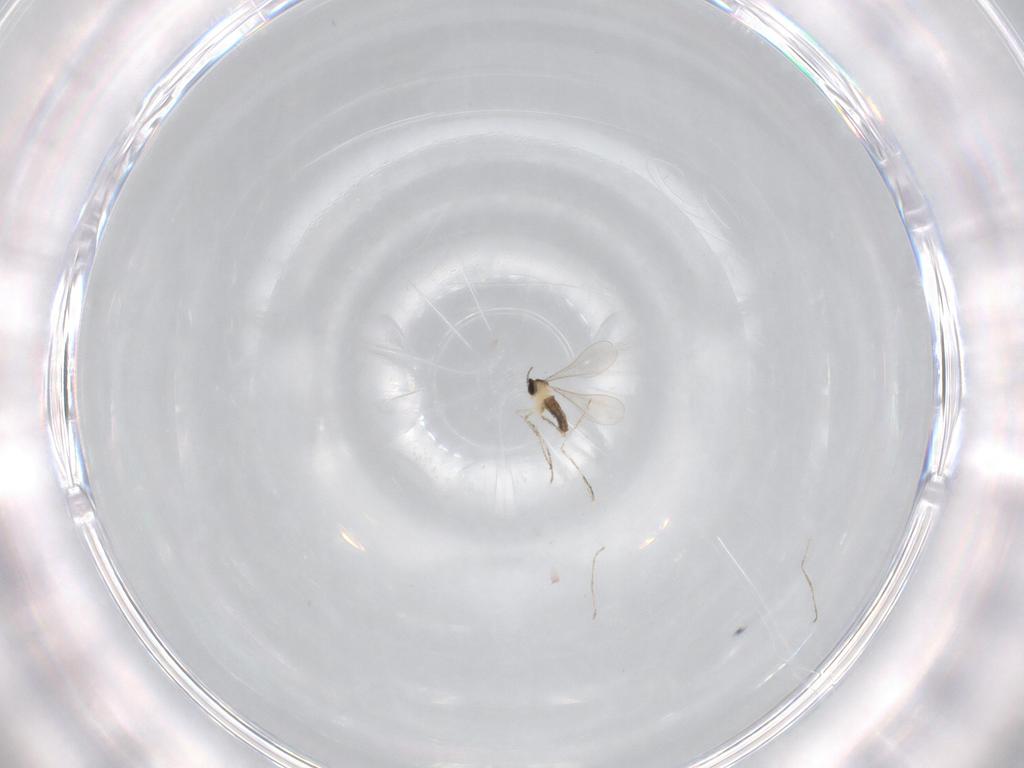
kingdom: Animalia
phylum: Arthropoda
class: Insecta
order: Diptera
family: Cecidomyiidae
